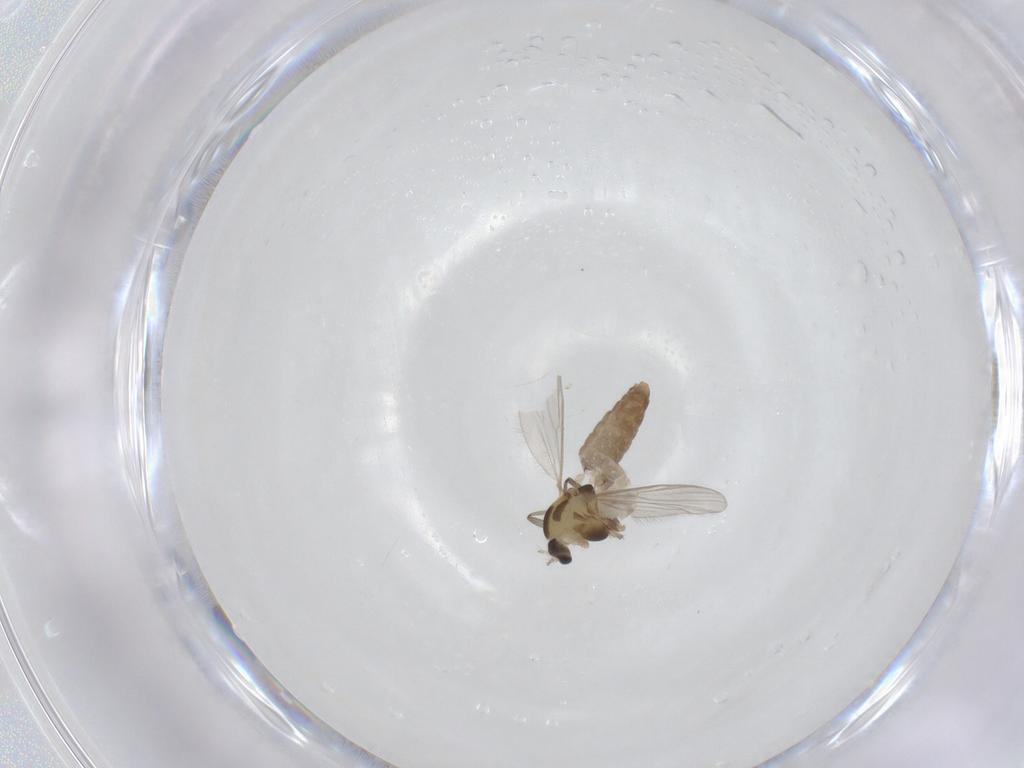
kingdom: Animalia
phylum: Arthropoda
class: Insecta
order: Diptera
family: Chironomidae
